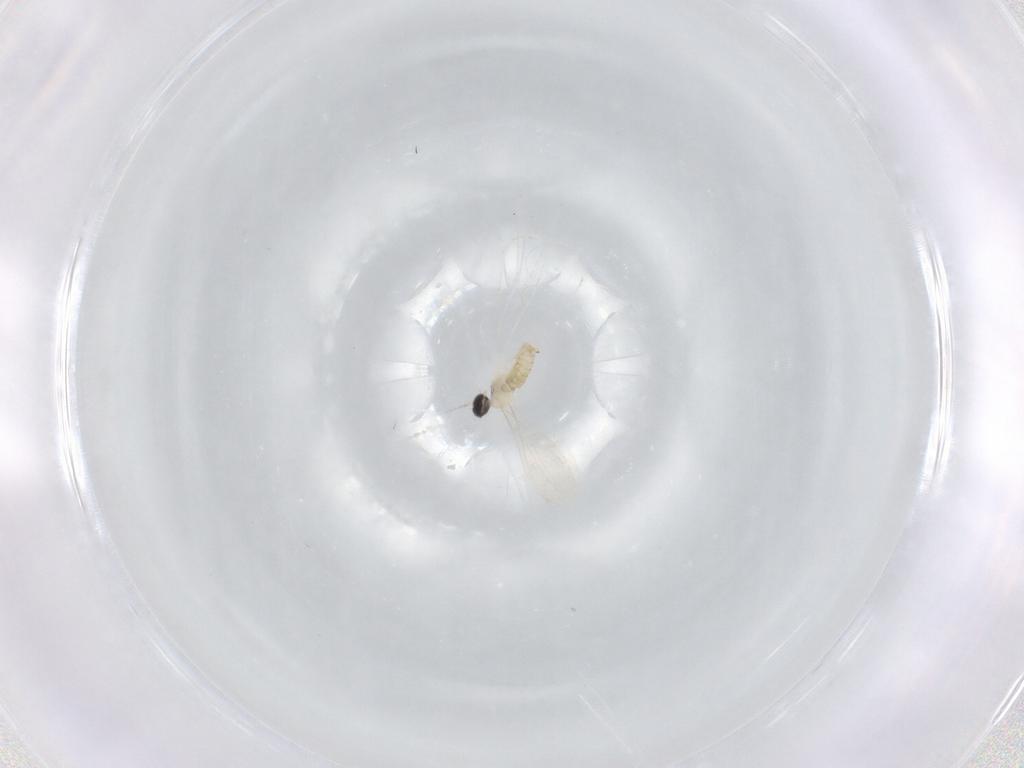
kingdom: Animalia
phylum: Arthropoda
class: Insecta
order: Diptera
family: Cecidomyiidae
